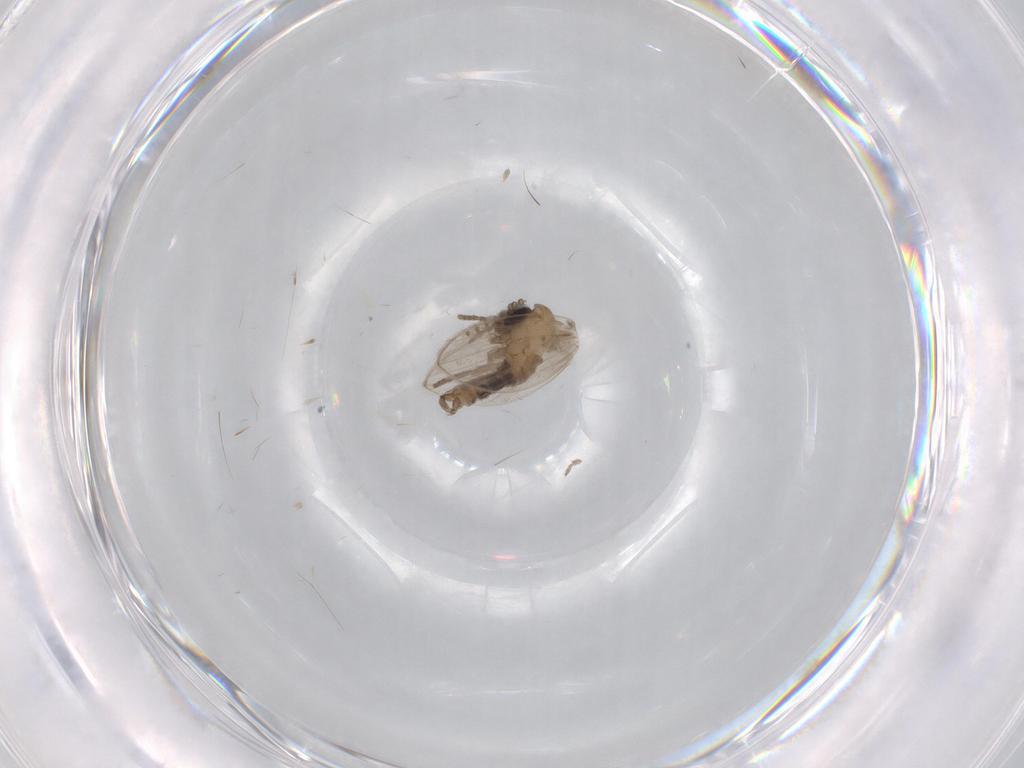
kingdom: Animalia
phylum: Arthropoda
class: Insecta
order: Diptera
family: Psychodidae
